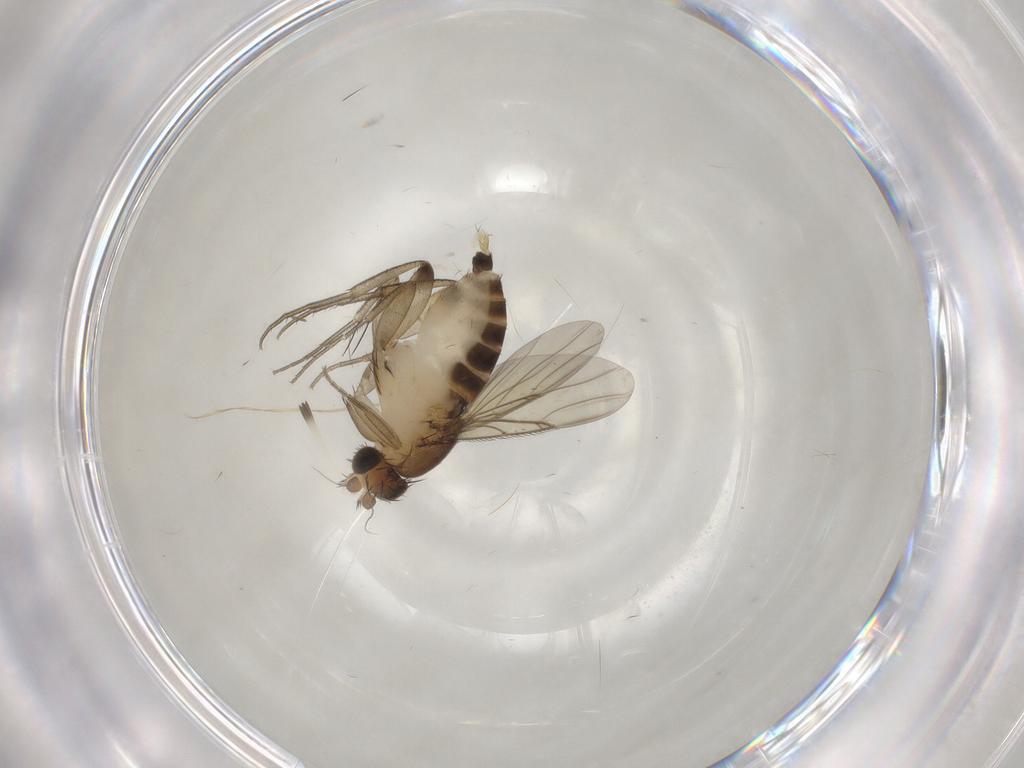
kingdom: Animalia
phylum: Arthropoda
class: Insecta
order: Diptera
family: Phoridae
